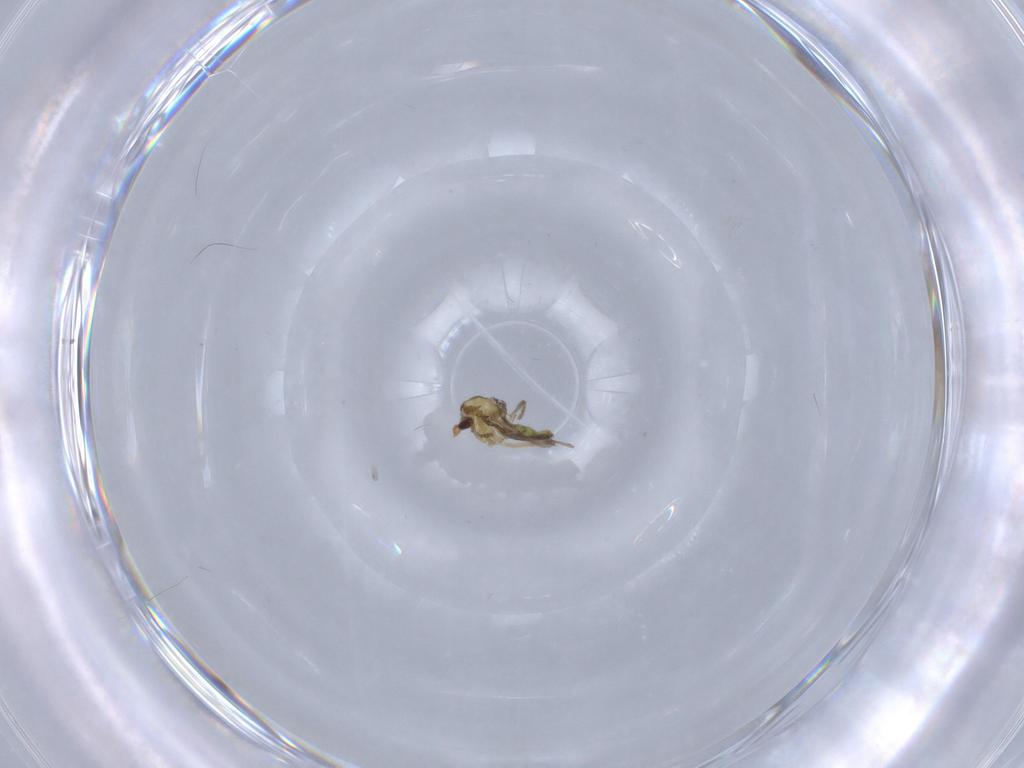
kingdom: Animalia
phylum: Arthropoda
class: Insecta
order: Diptera
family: Chironomidae
